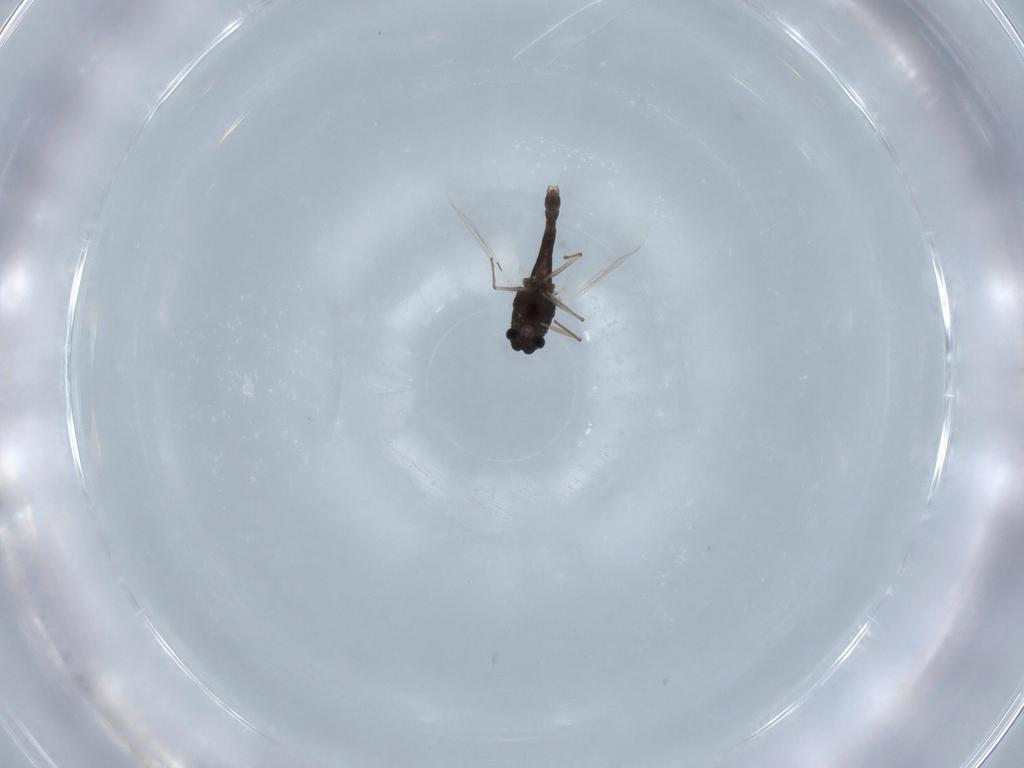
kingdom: Animalia
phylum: Arthropoda
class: Insecta
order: Diptera
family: Chironomidae
